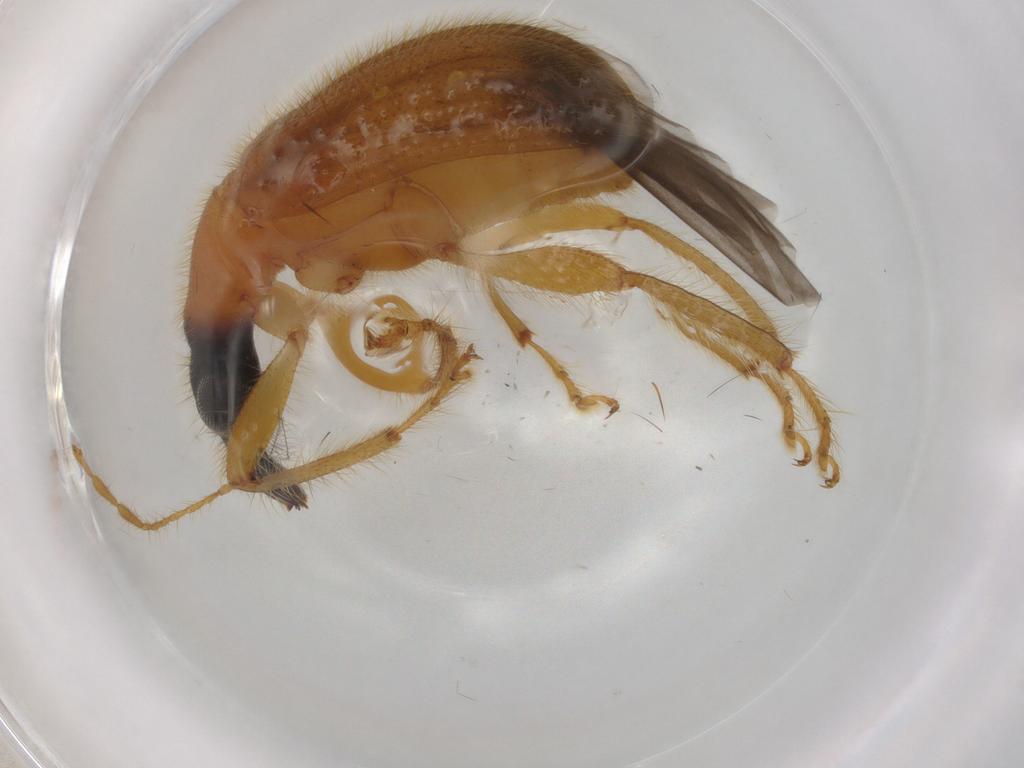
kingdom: Animalia
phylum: Arthropoda
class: Insecta
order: Coleoptera
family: Attelabidae
